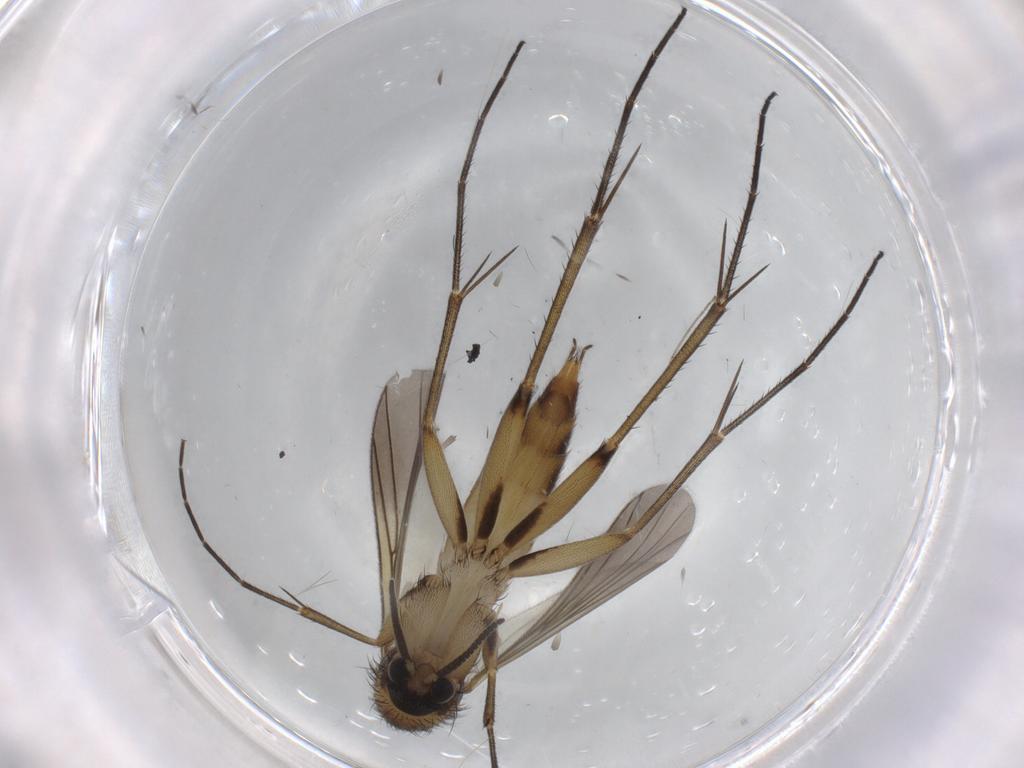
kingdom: Animalia
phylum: Arthropoda
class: Insecta
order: Diptera
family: Mycetophilidae
